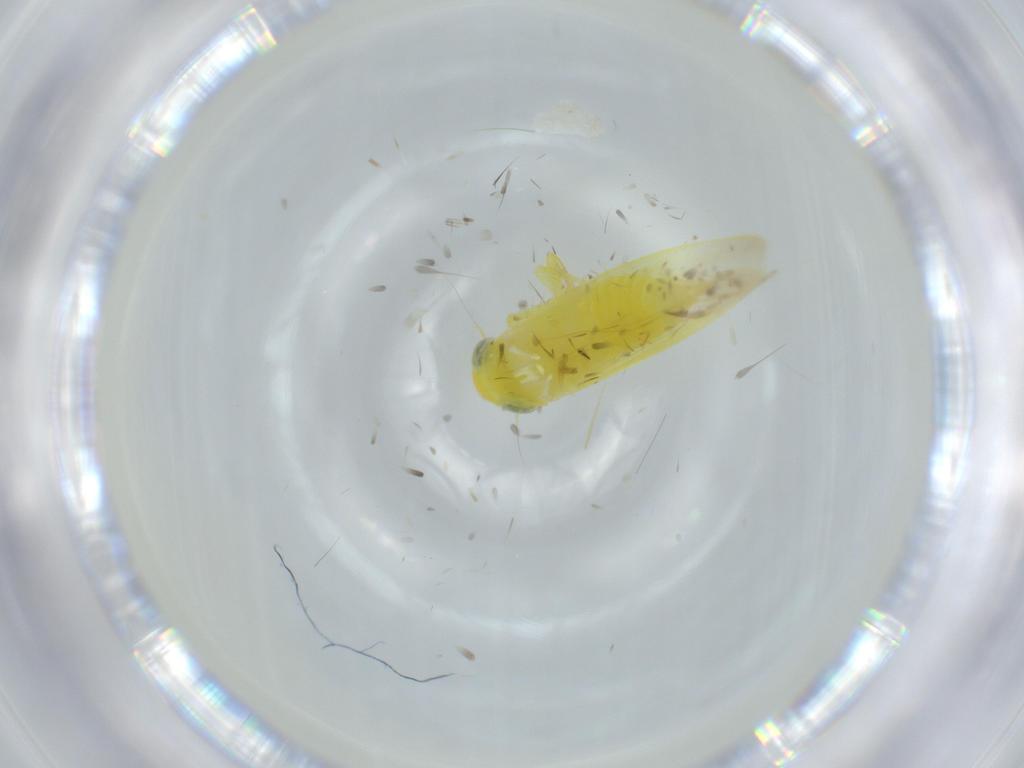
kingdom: Animalia
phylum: Arthropoda
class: Insecta
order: Hemiptera
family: Cicadellidae
